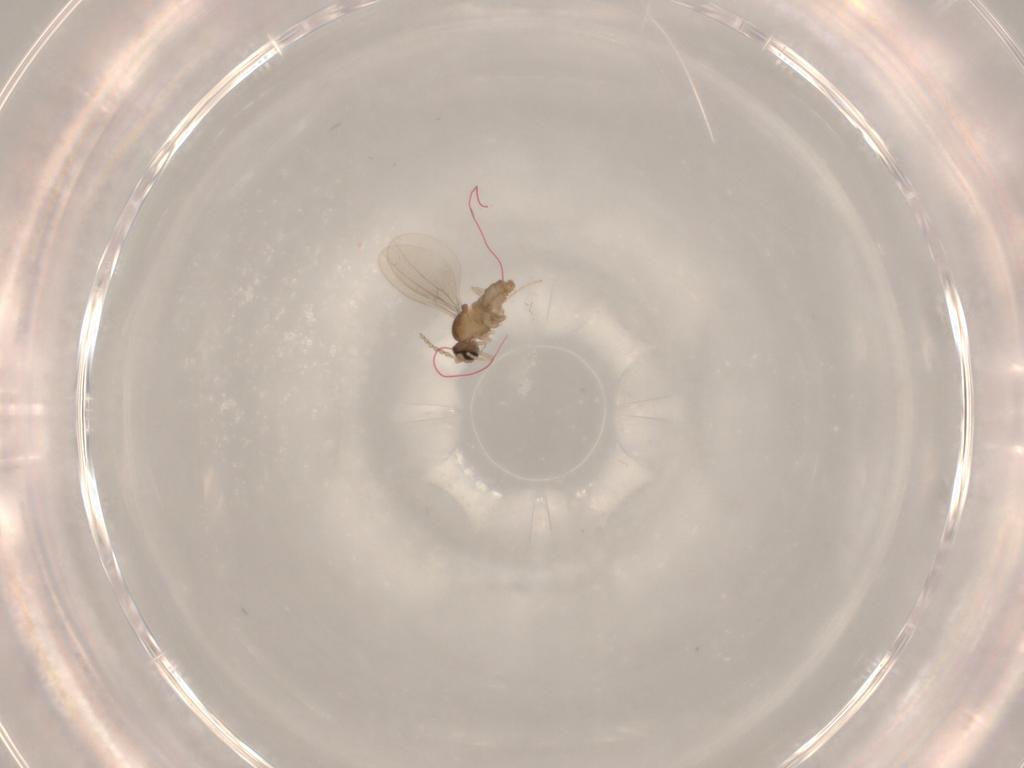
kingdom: Animalia
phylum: Arthropoda
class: Insecta
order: Diptera
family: Cecidomyiidae
